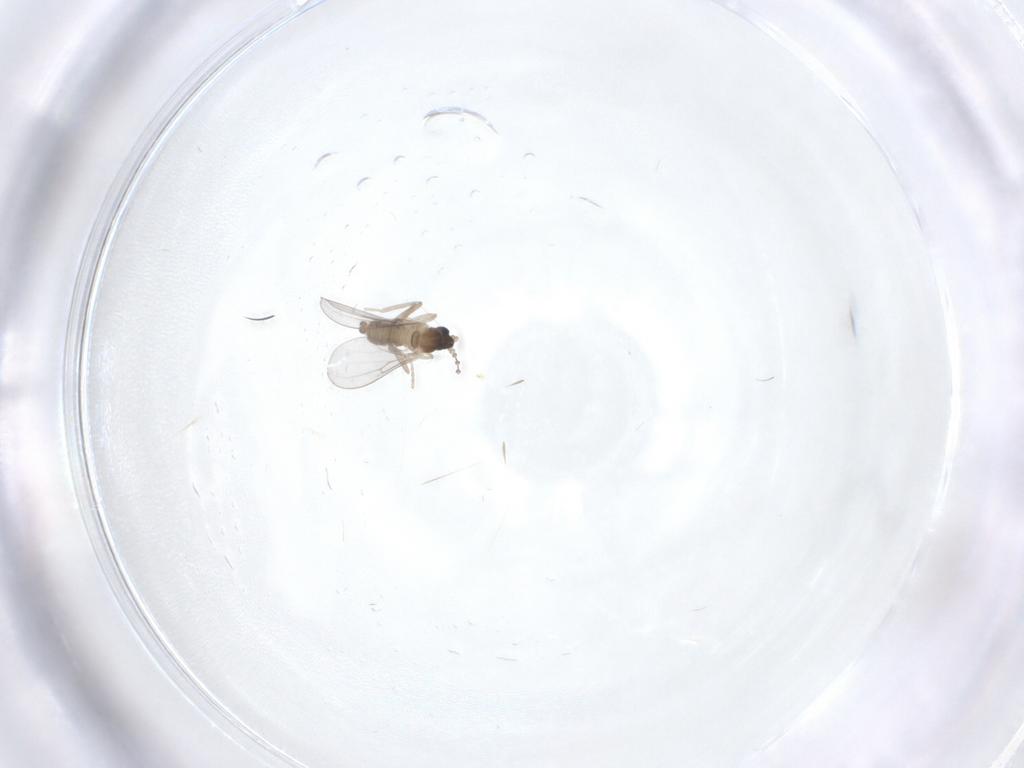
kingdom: Animalia
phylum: Arthropoda
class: Insecta
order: Diptera
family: Cecidomyiidae
